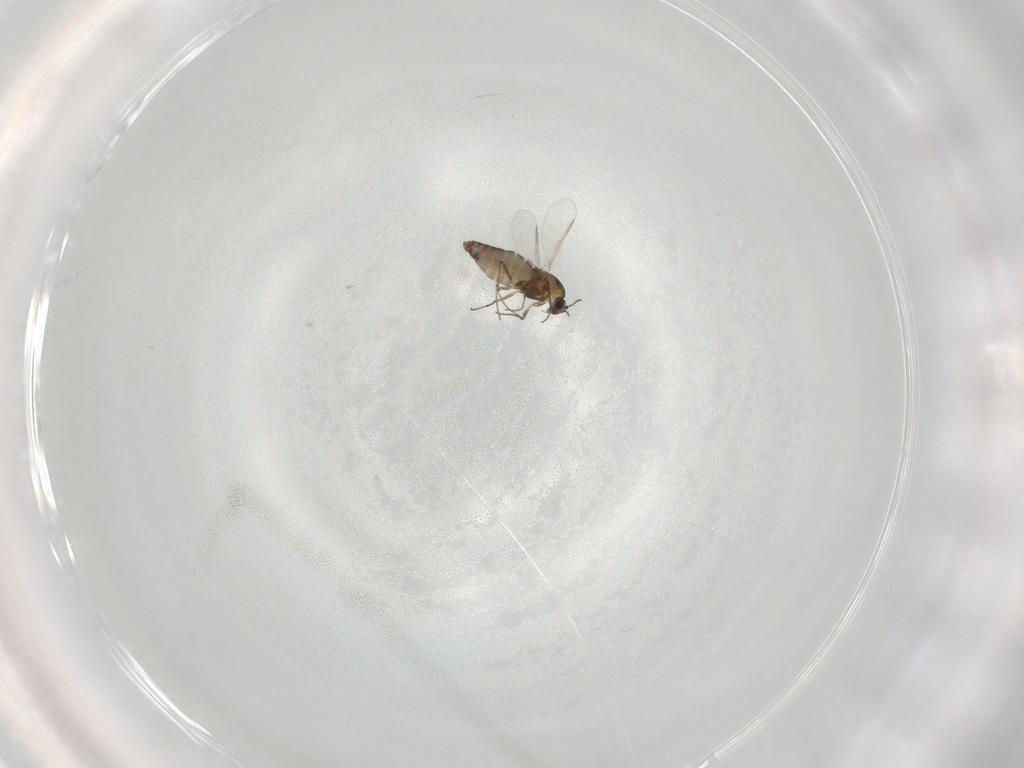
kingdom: Animalia
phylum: Arthropoda
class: Insecta
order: Diptera
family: Chironomidae
